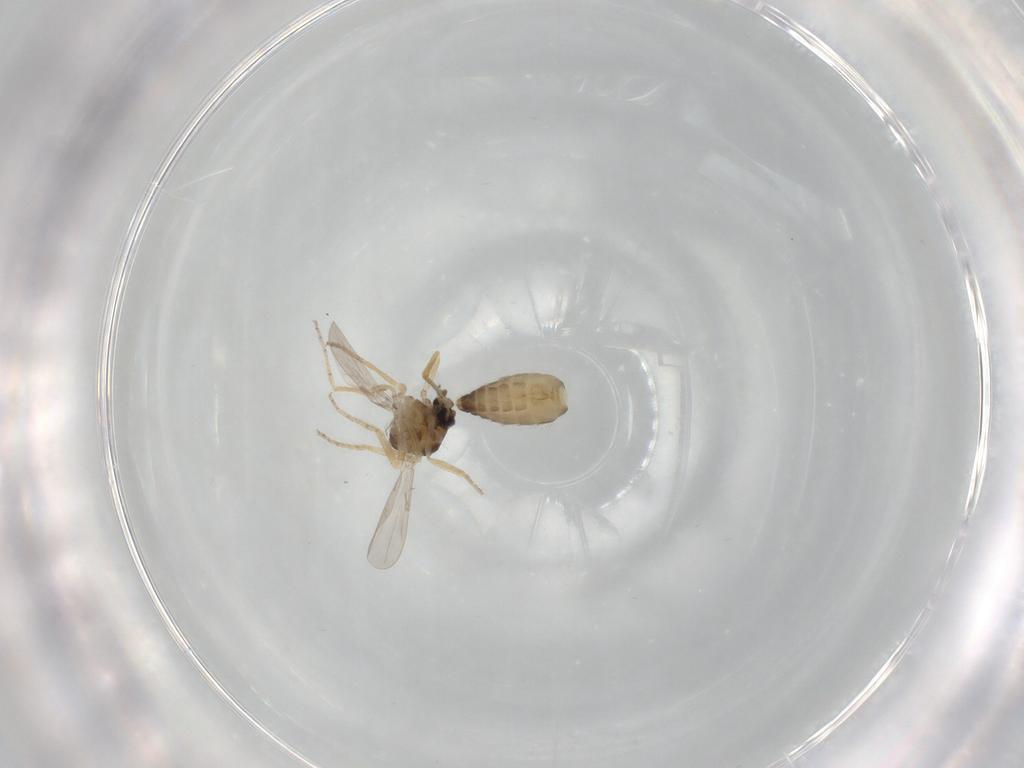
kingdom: Animalia
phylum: Arthropoda
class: Insecta
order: Diptera
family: Ceratopogonidae
